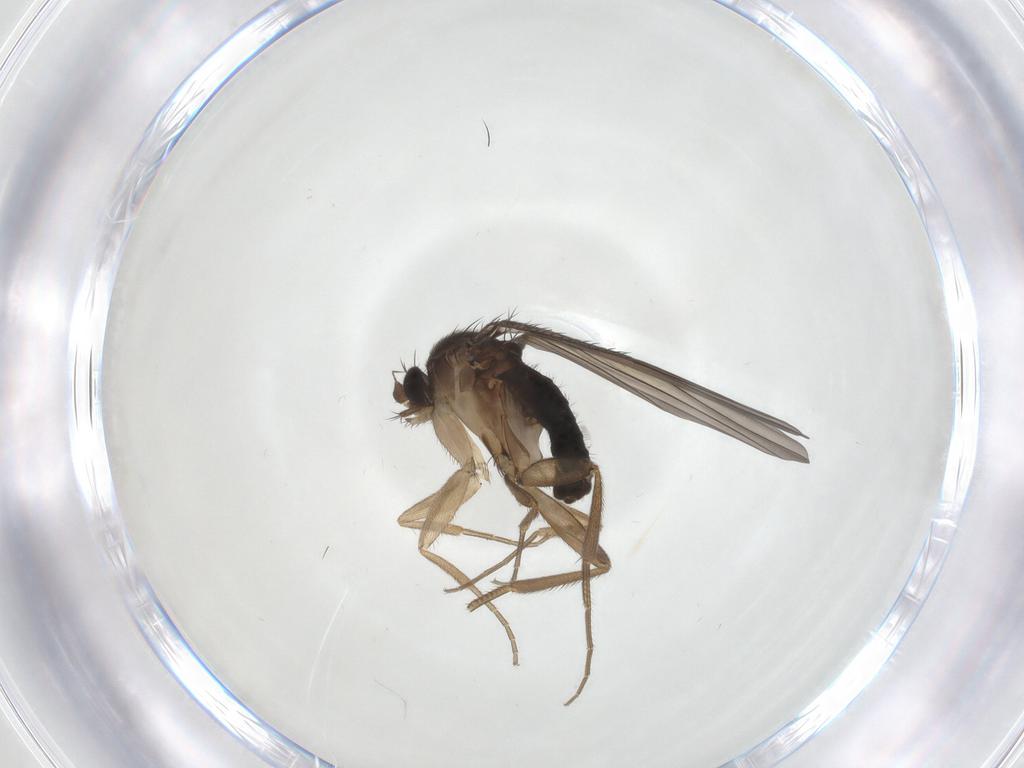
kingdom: Animalia
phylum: Arthropoda
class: Insecta
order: Diptera
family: Phoridae
